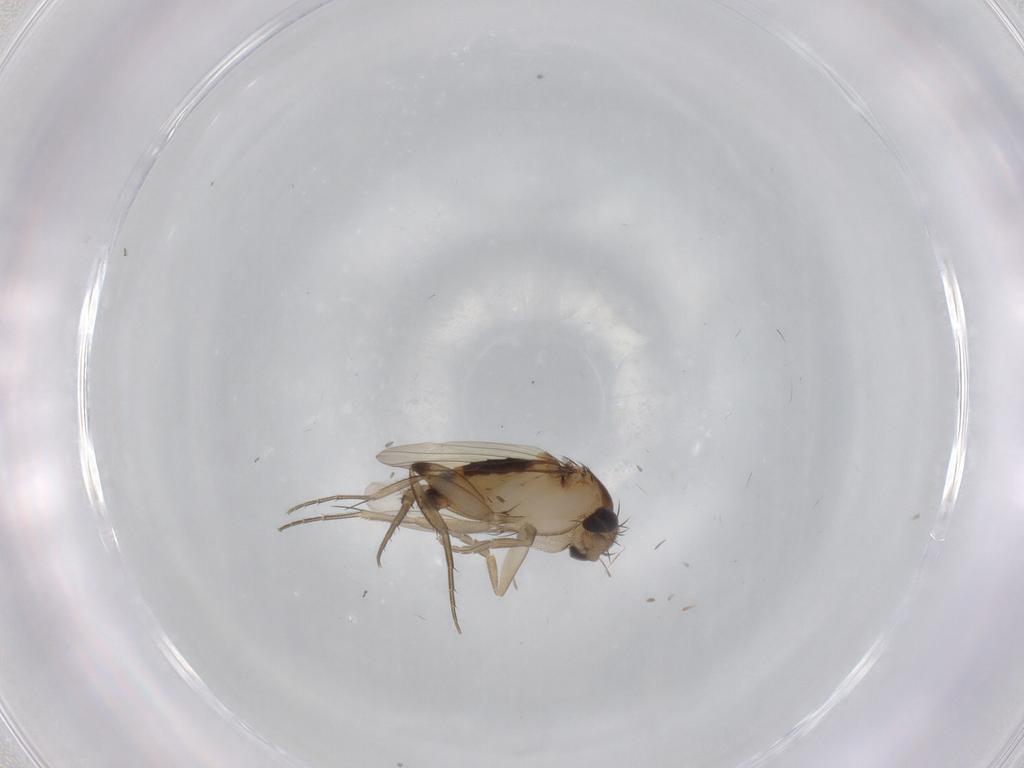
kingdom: Animalia
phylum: Arthropoda
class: Insecta
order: Diptera
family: Phoridae
